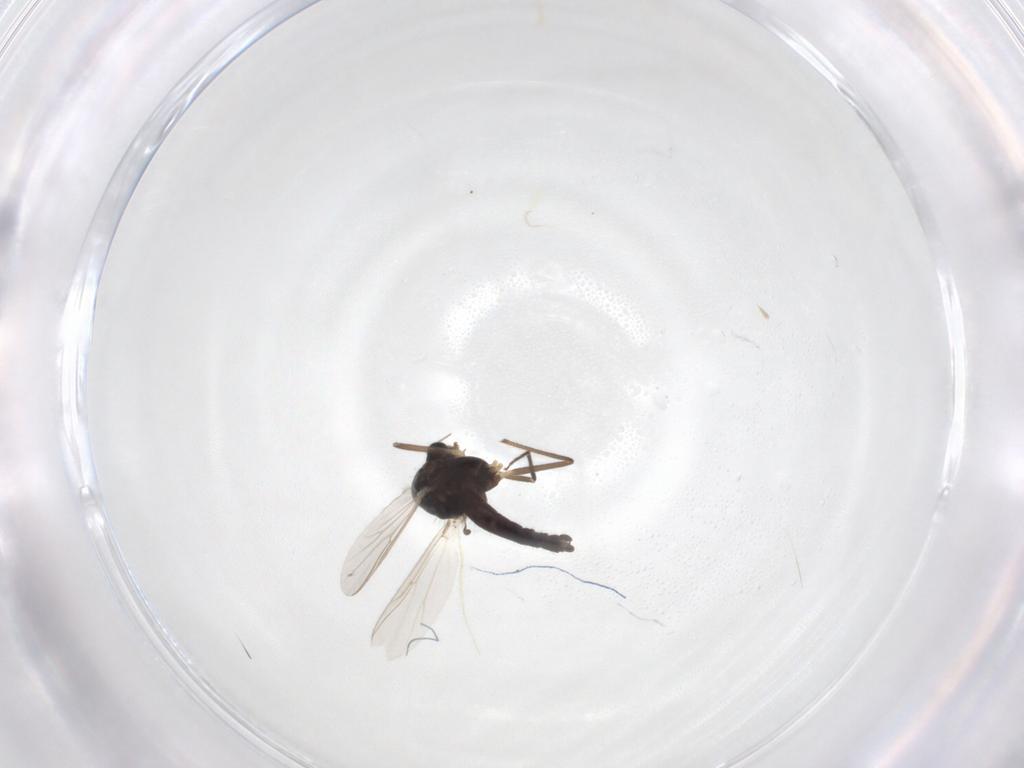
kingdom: Animalia
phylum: Arthropoda
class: Insecta
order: Diptera
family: Chironomidae
